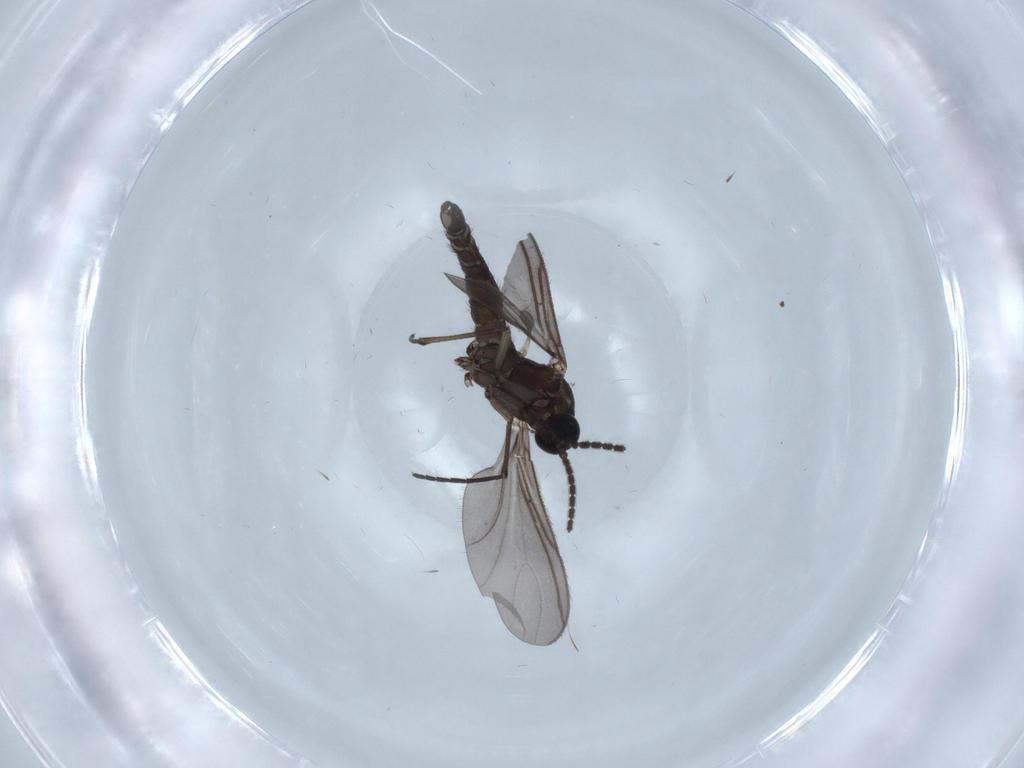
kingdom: Animalia
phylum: Arthropoda
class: Insecta
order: Diptera
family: Sciaridae
